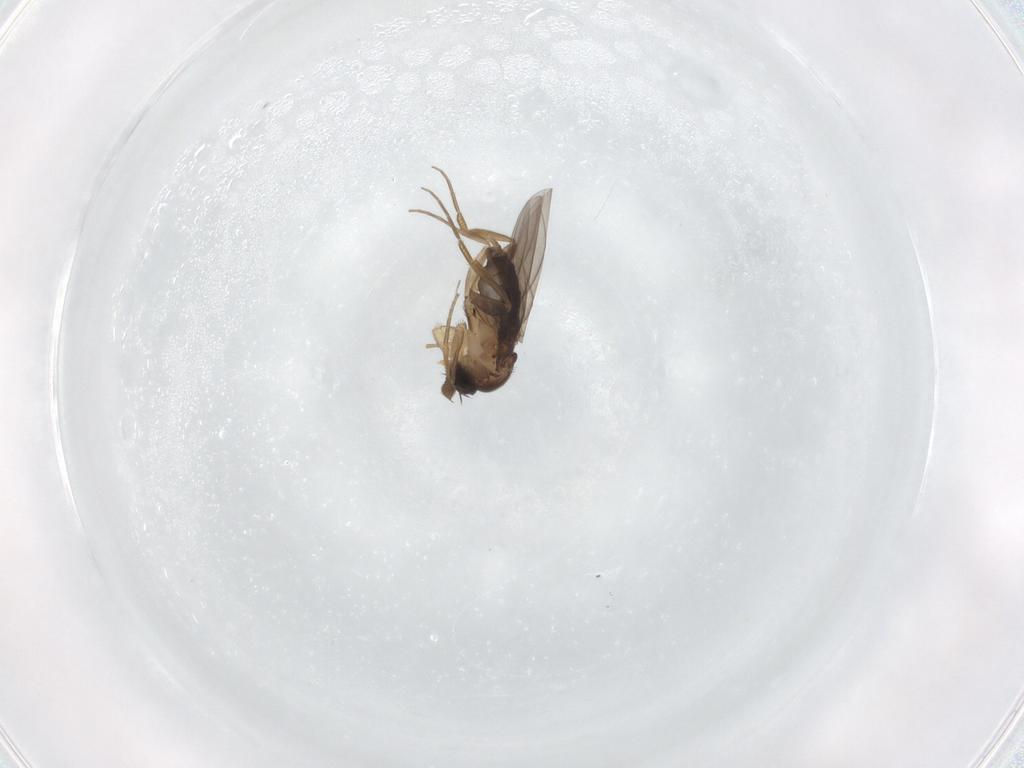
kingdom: Animalia
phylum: Arthropoda
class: Insecta
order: Diptera
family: Phoridae
